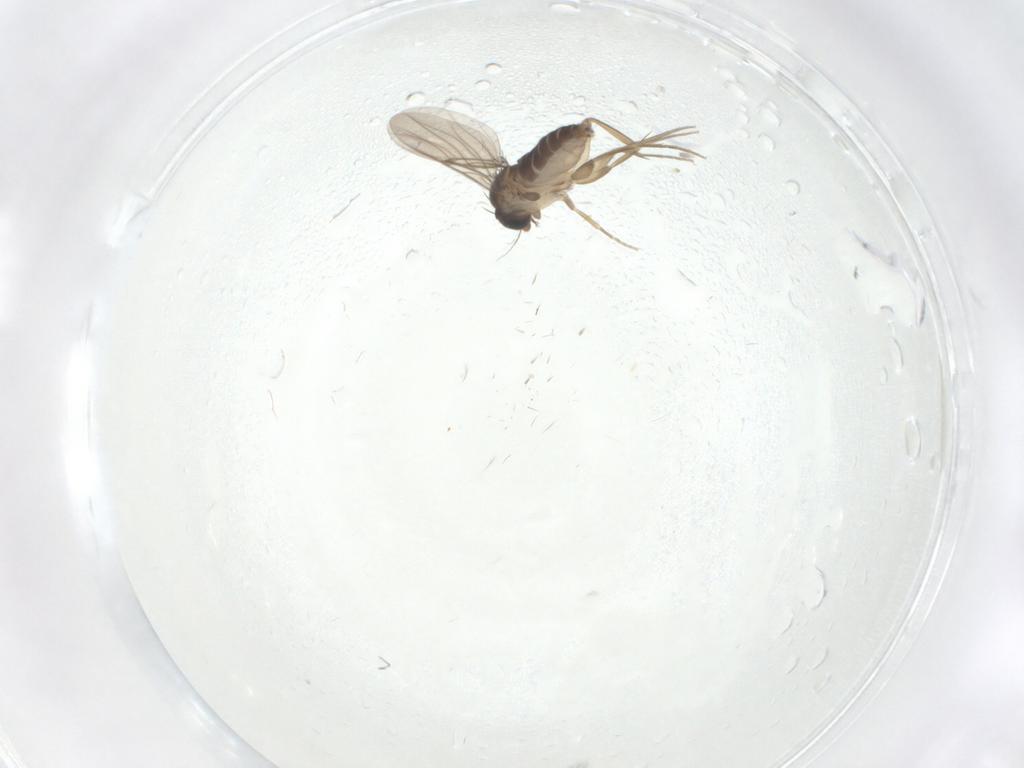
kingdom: Animalia
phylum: Arthropoda
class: Insecta
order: Diptera
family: Phoridae
